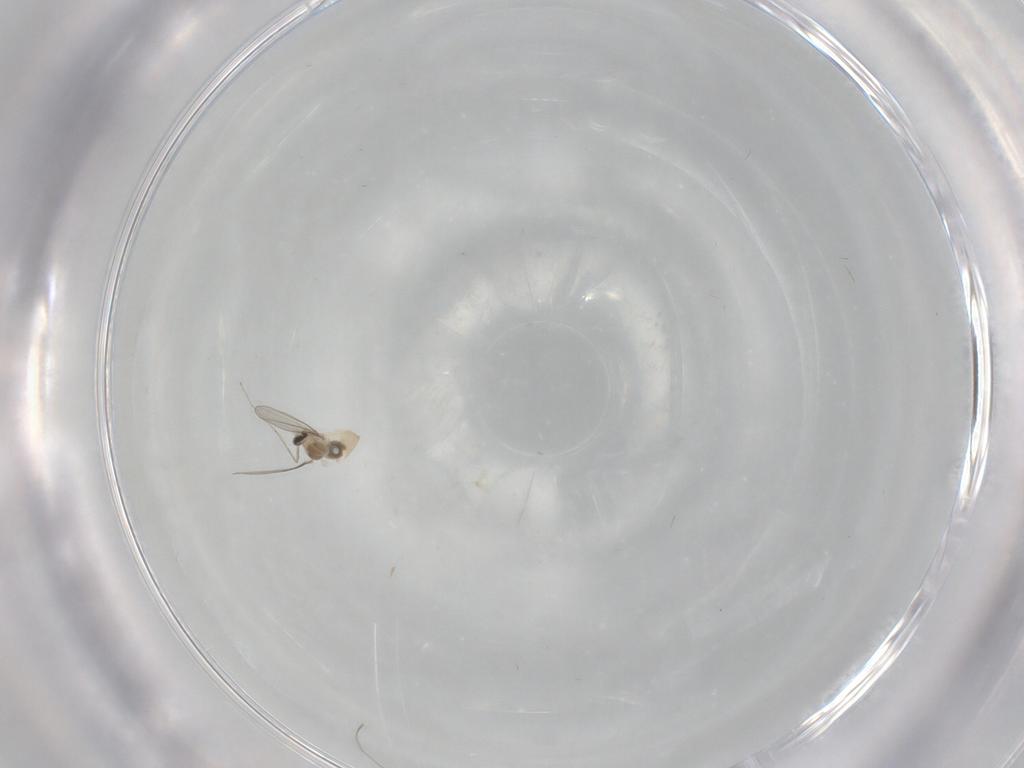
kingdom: Animalia
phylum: Arthropoda
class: Insecta
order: Diptera
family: Cecidomyiidae
